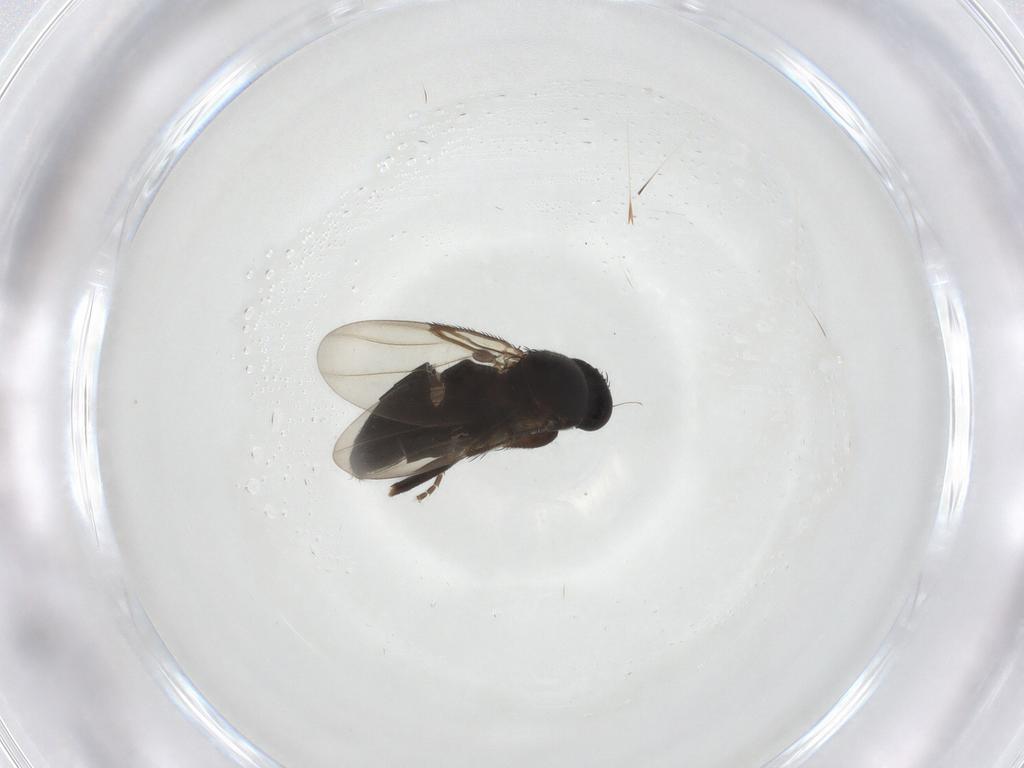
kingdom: Animalia
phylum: Arthropoda
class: Insecta
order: Diptera
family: Phoridae
